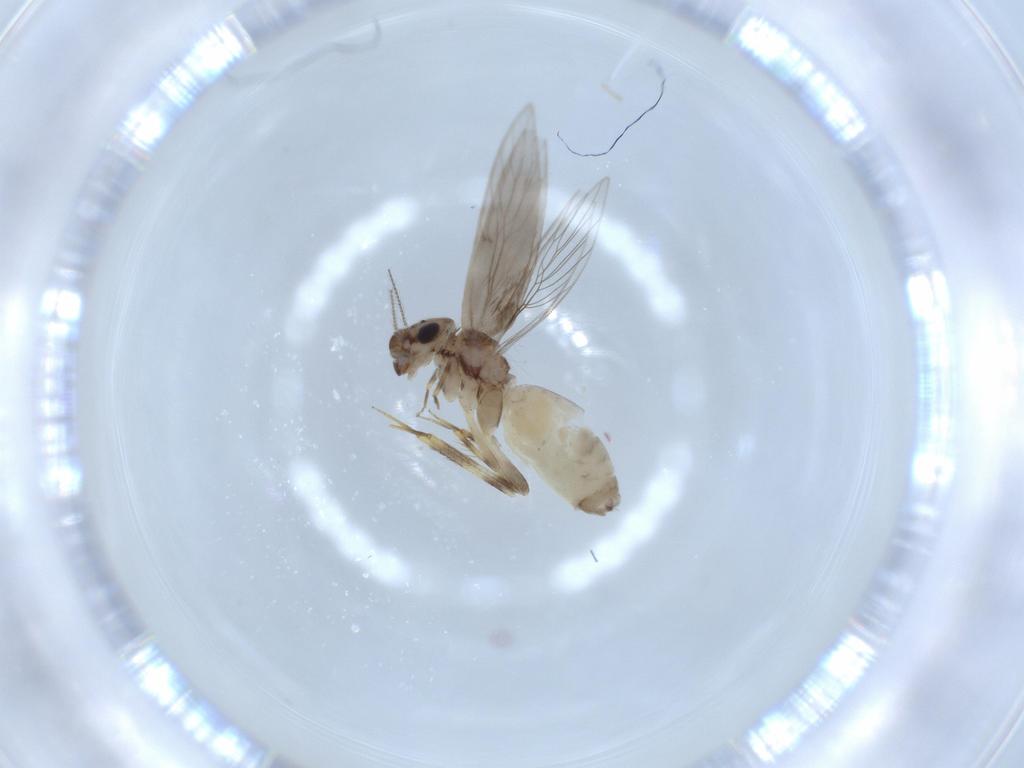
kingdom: Animalia
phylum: Arthropoda
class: Insecta
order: Psocodea
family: Lepidopsocidae
